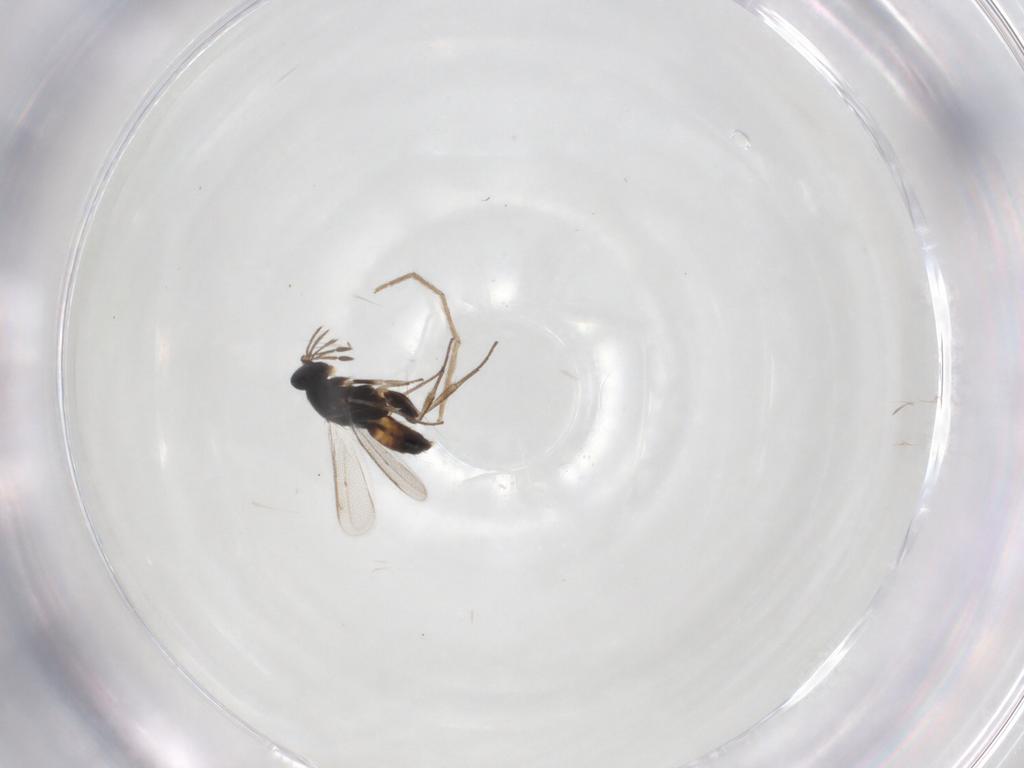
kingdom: Animalia
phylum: Arthropoda
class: Insecta
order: Hymenoptera
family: Eulophidae
